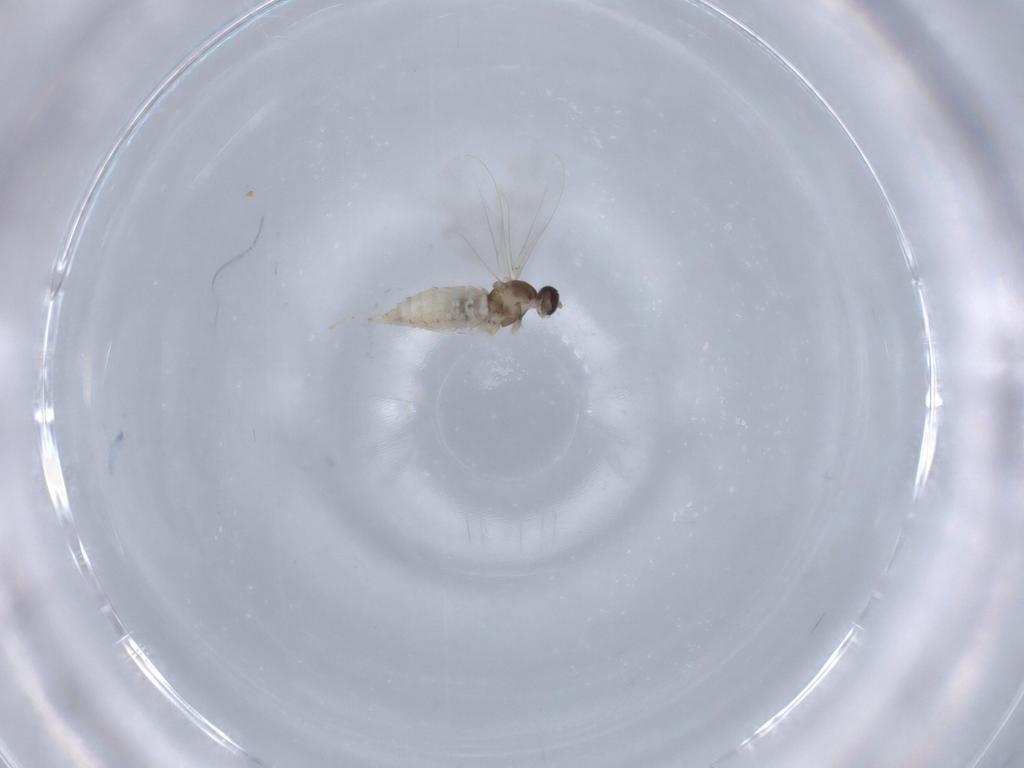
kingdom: Animalia
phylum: Arthropoda
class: Insecta
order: Diptera
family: Cecidomyiidae
